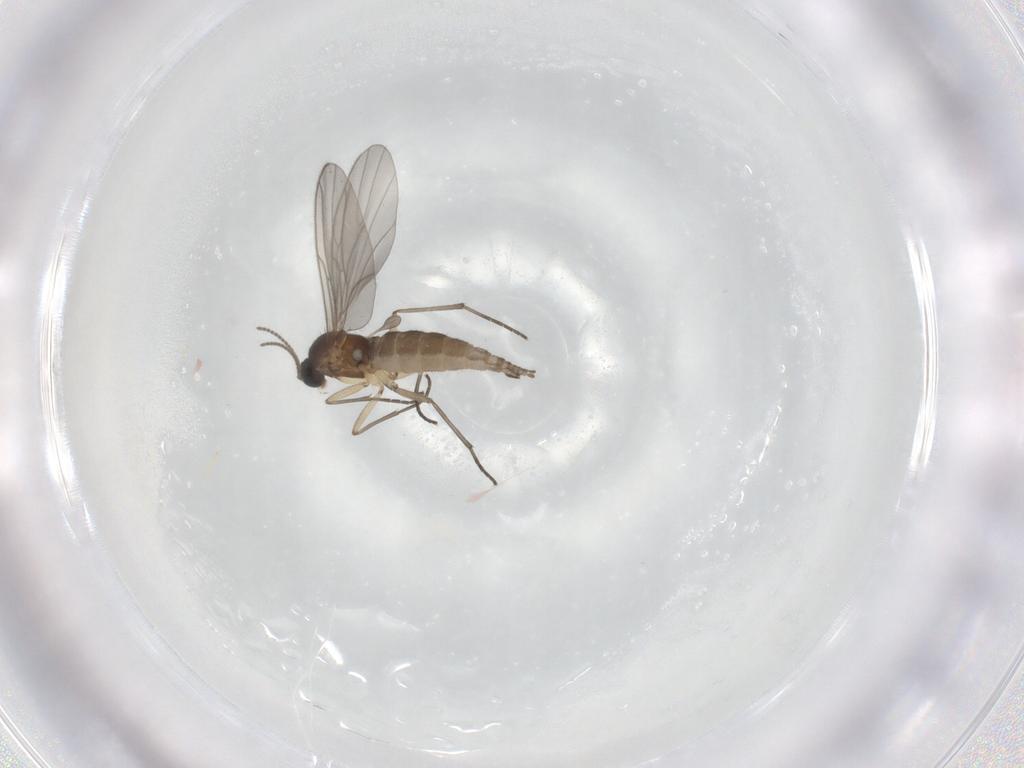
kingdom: Animalia
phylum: Arthropoda
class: Insecta
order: Diptera
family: Sciaridae
